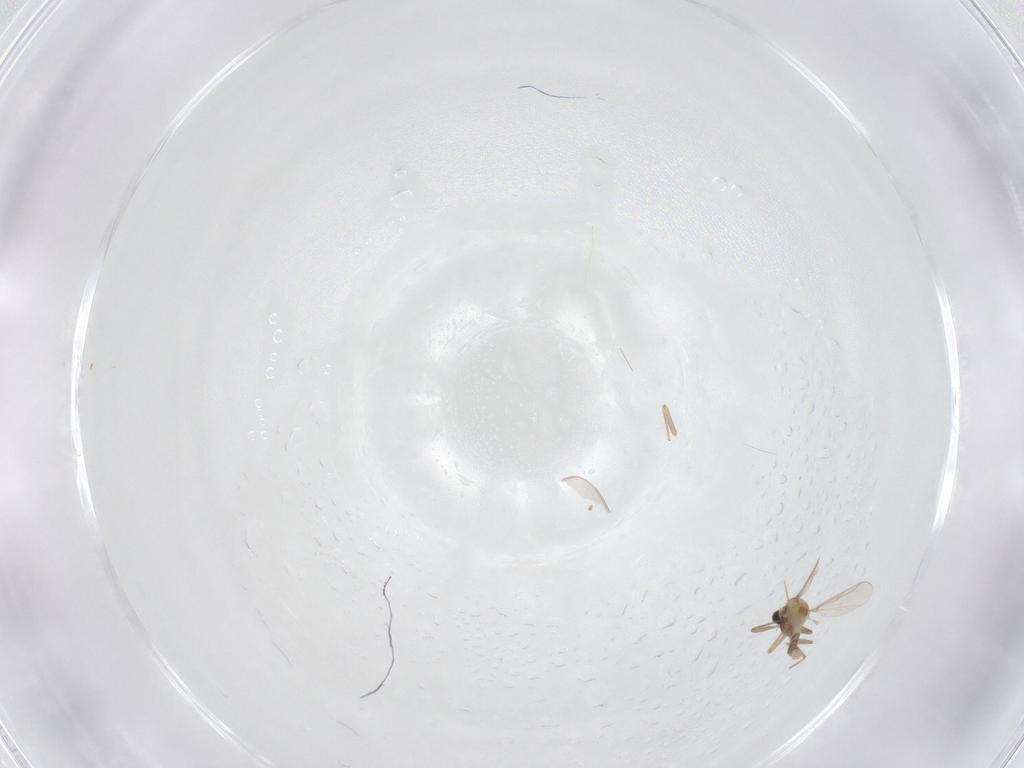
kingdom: Animalia
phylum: Arthropoda
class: Insecta
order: Diptera
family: Chironomidae
